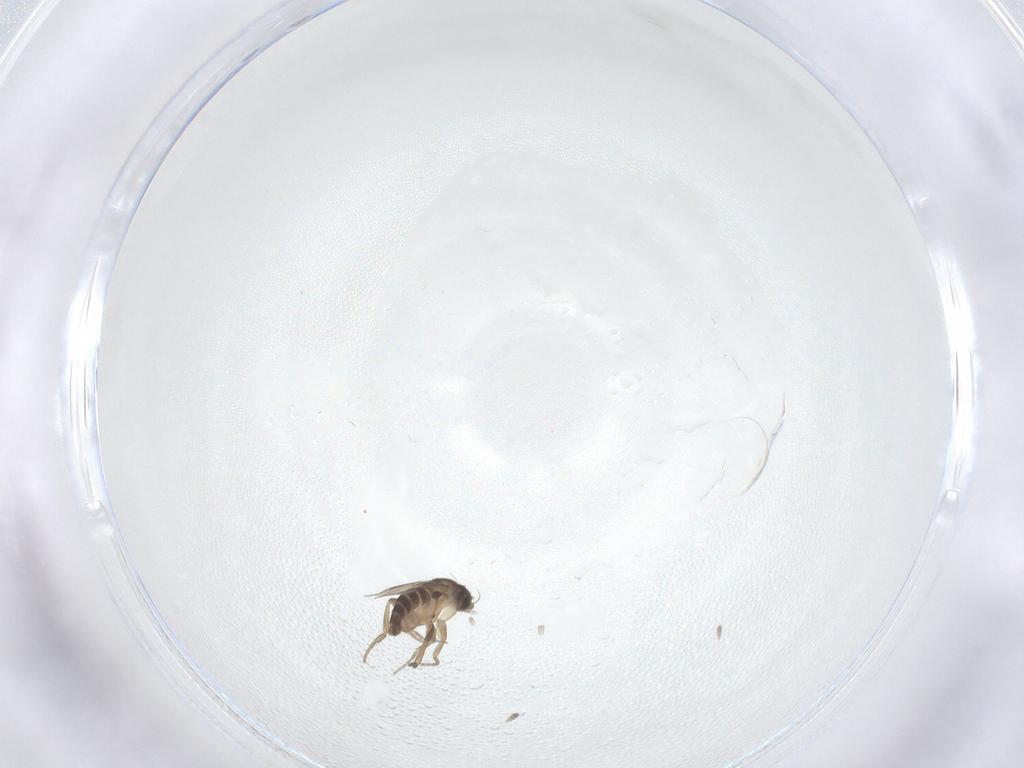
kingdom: Animalia
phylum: Arthropoda
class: Insecta
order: Diptera
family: Phoridae
